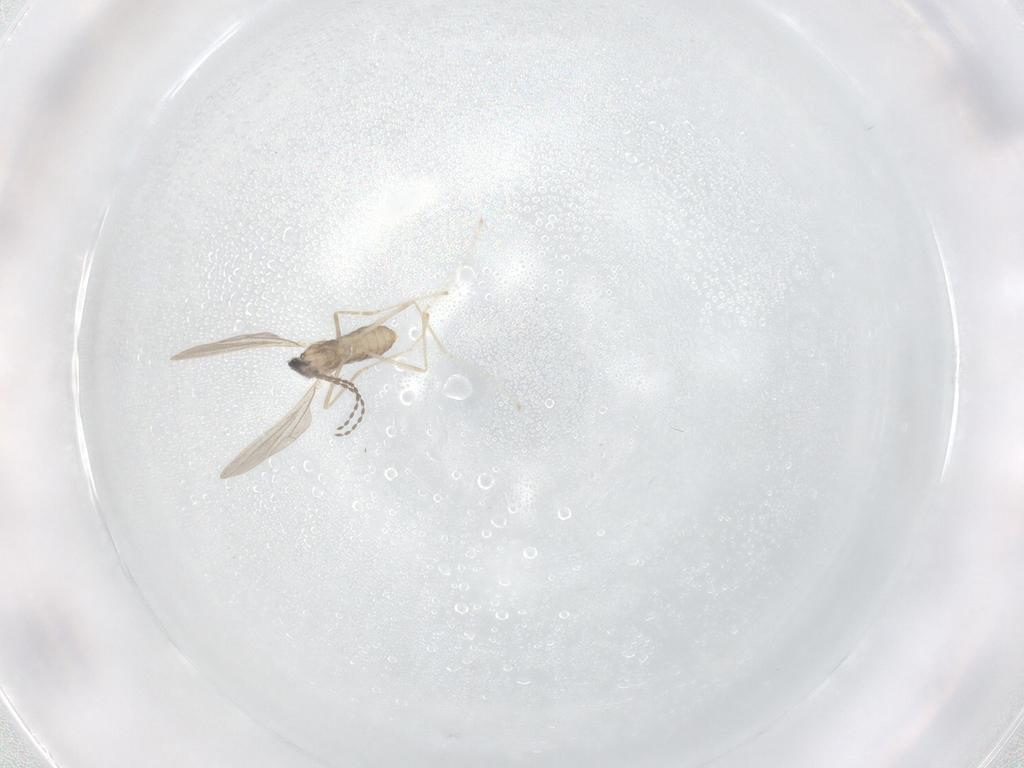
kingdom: Animalia
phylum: Arthropoda
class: Insecta
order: Diptera
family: Cecidomyiidae
